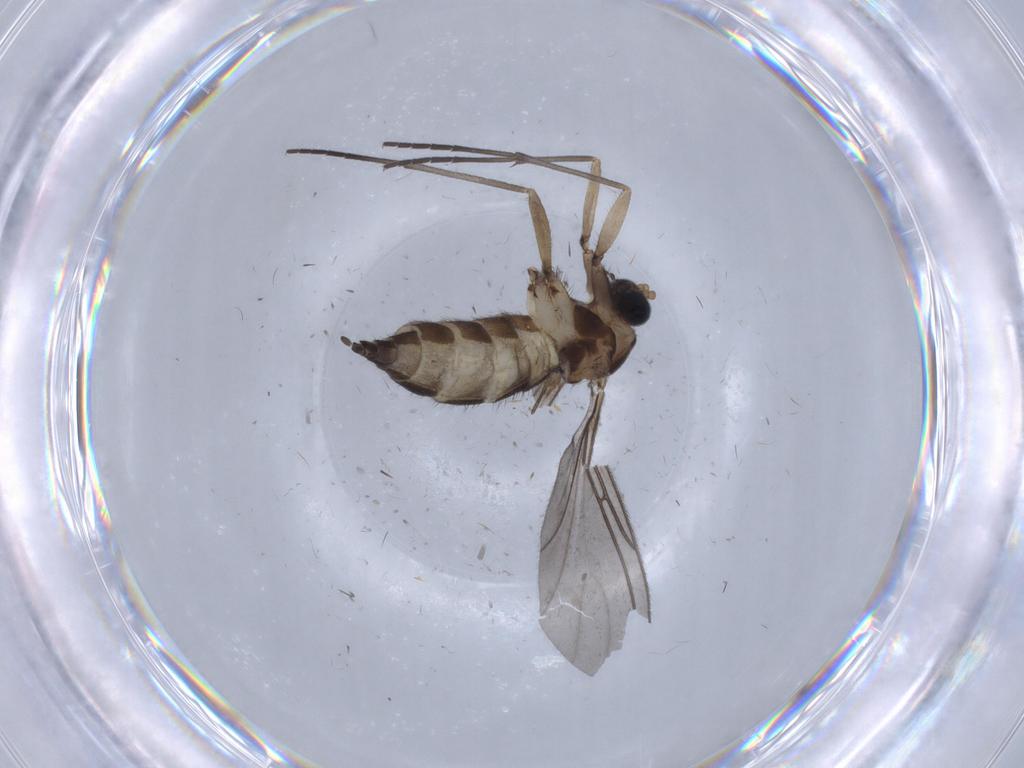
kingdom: Animalia
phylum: Arthropoda
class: Insecta
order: Diptera
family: Sciaridae
